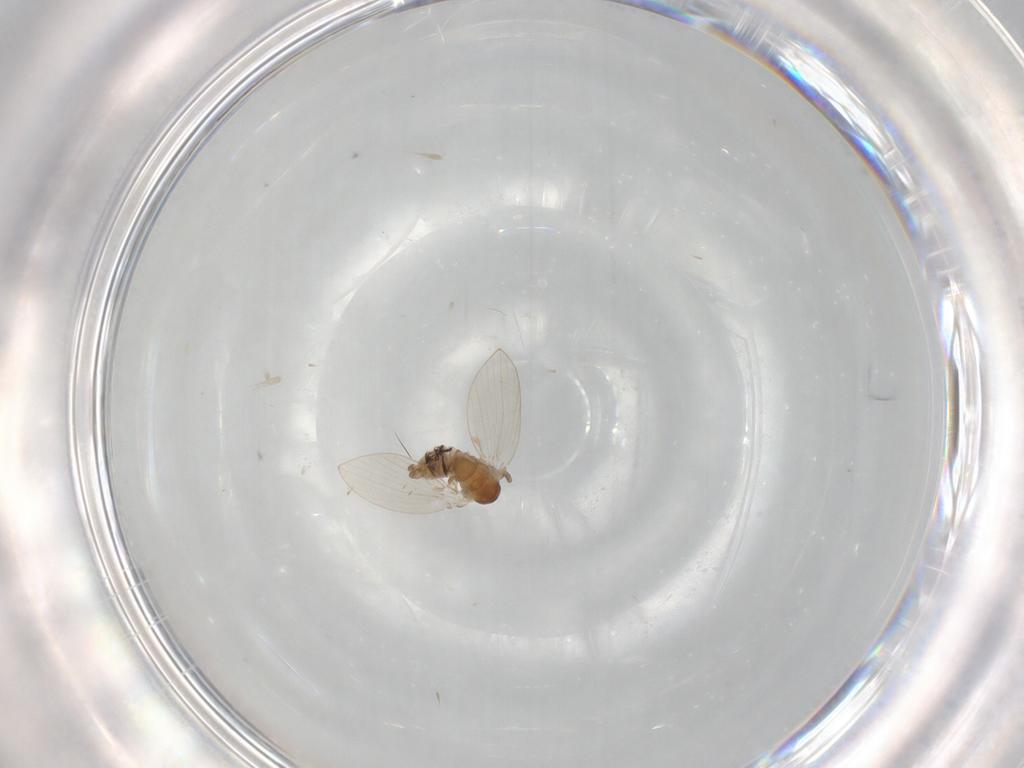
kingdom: Animalia
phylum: Arthropoda
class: Insecta
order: Diptera
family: Psychodidae
